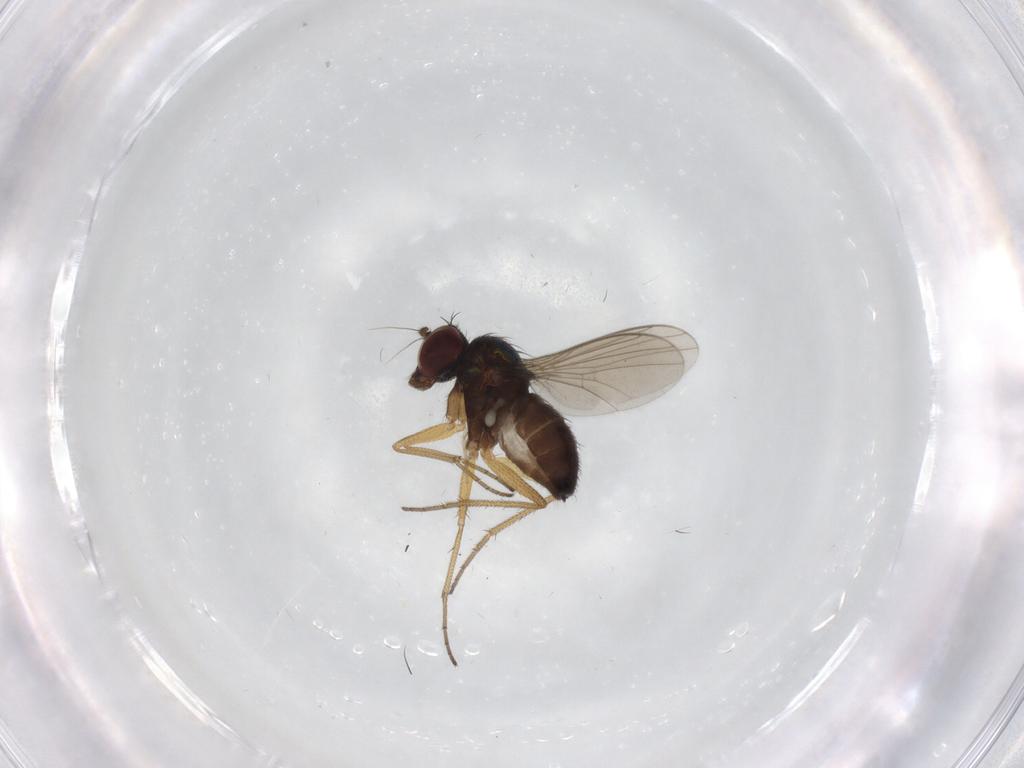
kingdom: Animalia
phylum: Arthropoda
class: Insecta
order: Diptera
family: Dolichopodidae
